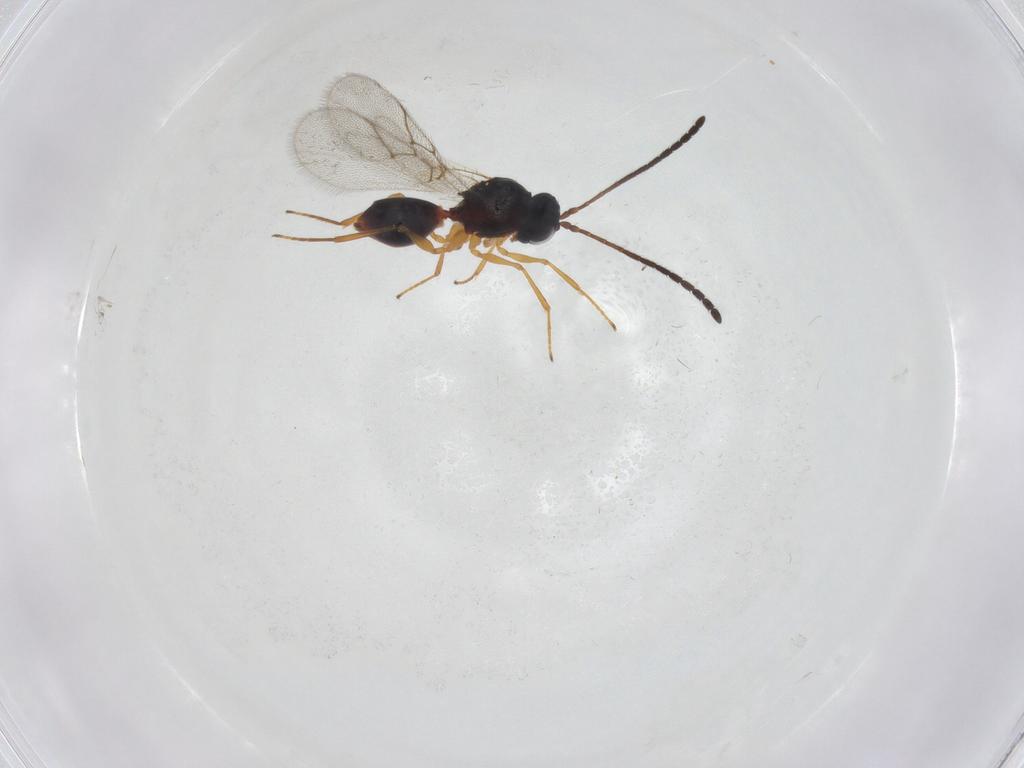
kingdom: Animalia
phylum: Arthropoda
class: Insecta
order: Hymenoptera
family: Figitidae
